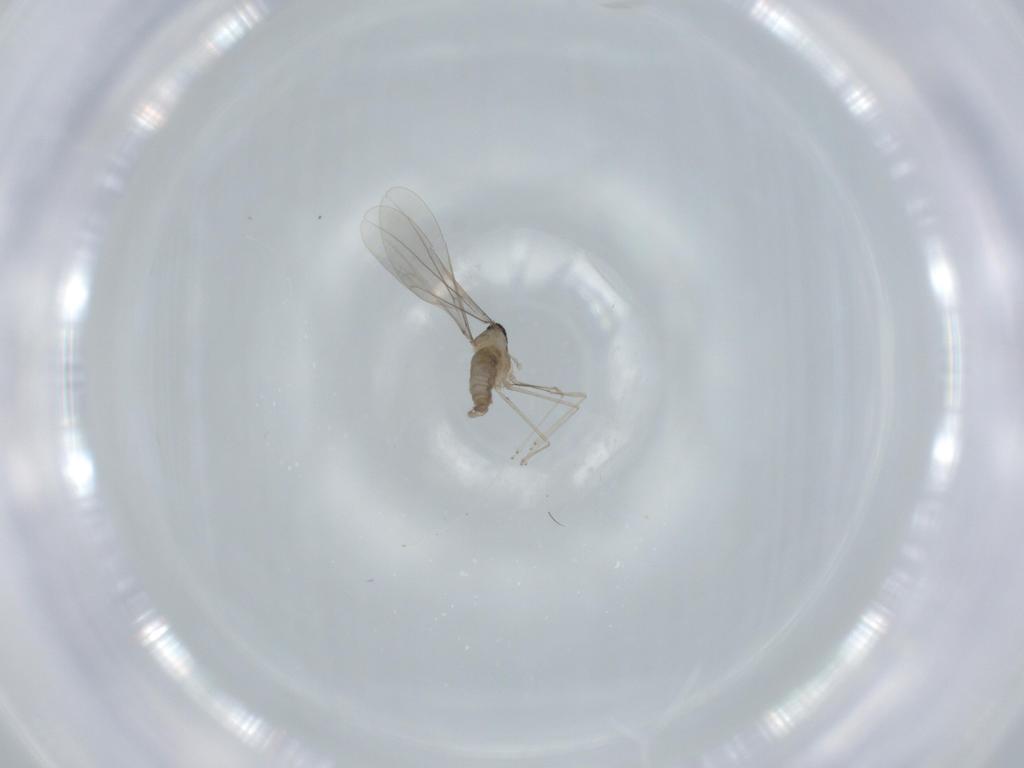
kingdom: Animalia
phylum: Arthropoda
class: Insecta
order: Diptera
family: Cecidomyiidae
